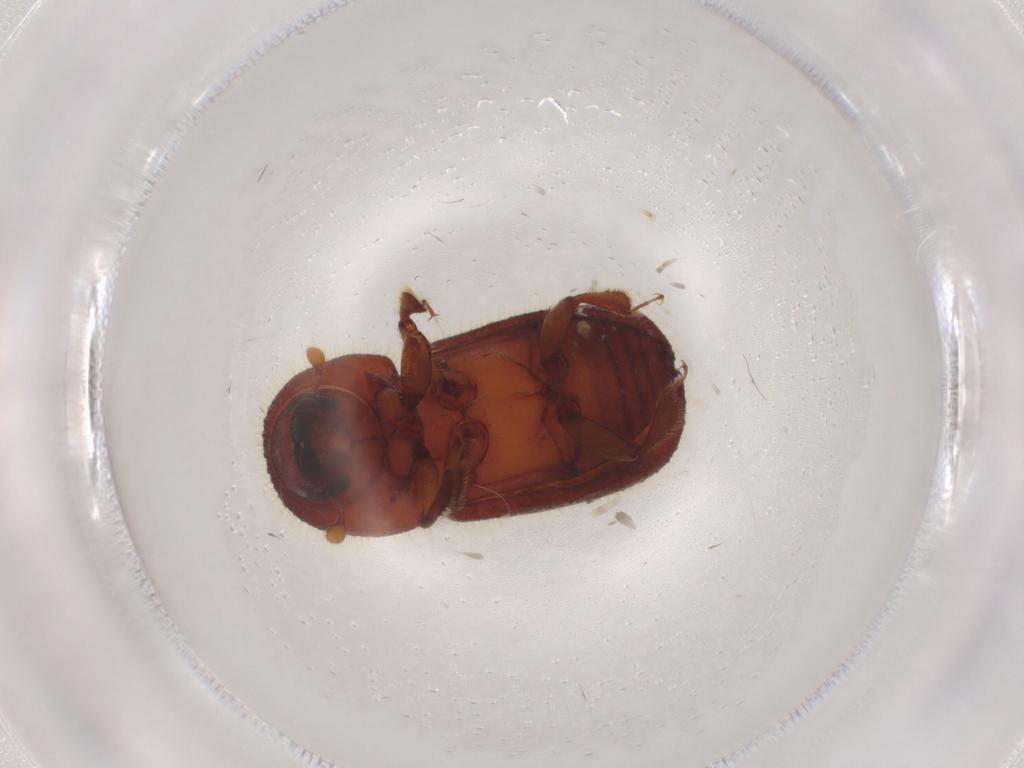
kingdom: Animalia
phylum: Arthropoda
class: Insecta
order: Coleoptera
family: Curculionidae
